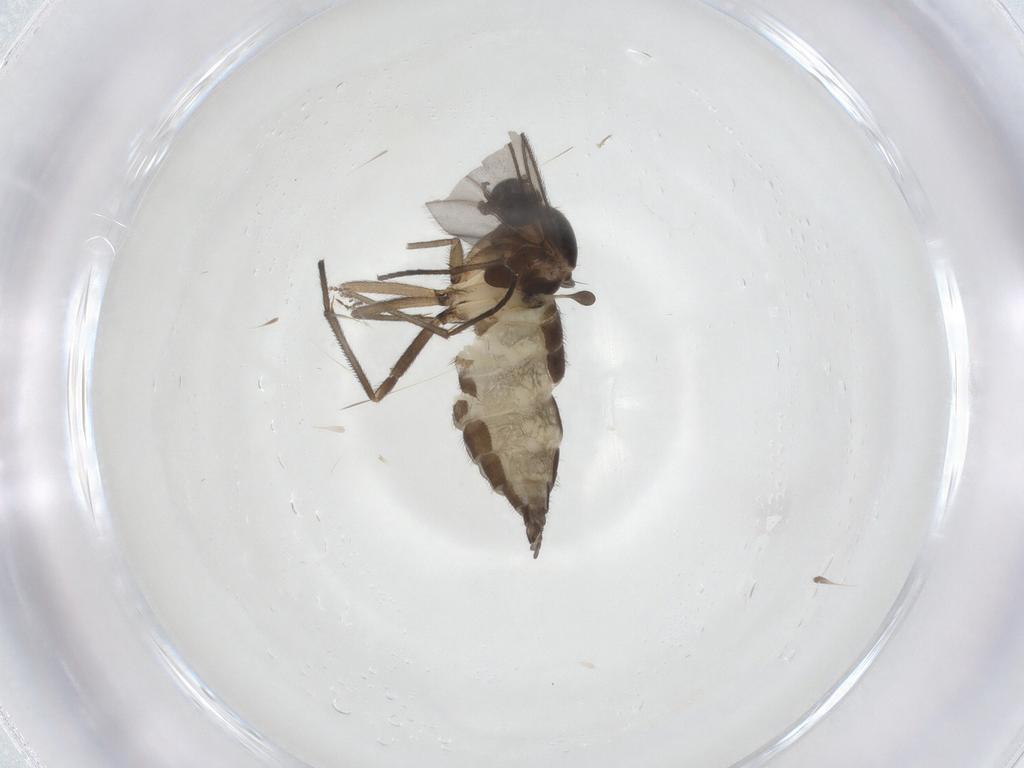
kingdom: Animalia
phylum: Arthropoda
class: Insecta
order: Diptera
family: Sciaridae
